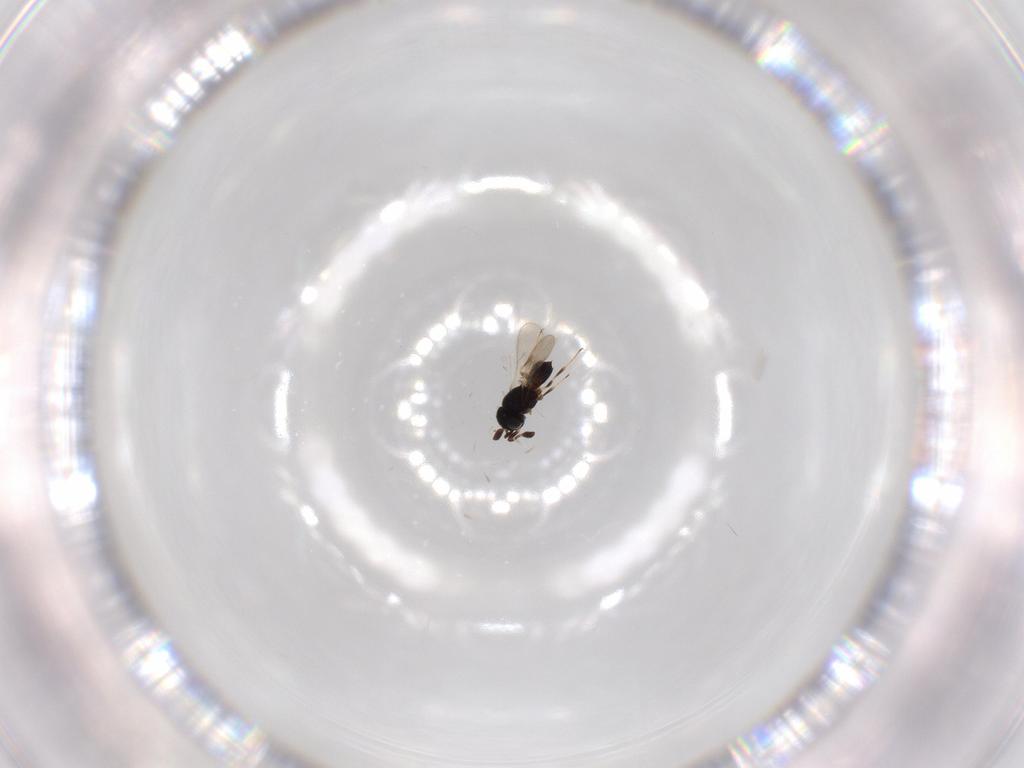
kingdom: Animalia
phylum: Arthropoda
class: Insecta
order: Hymenoptera
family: Scelionidae
